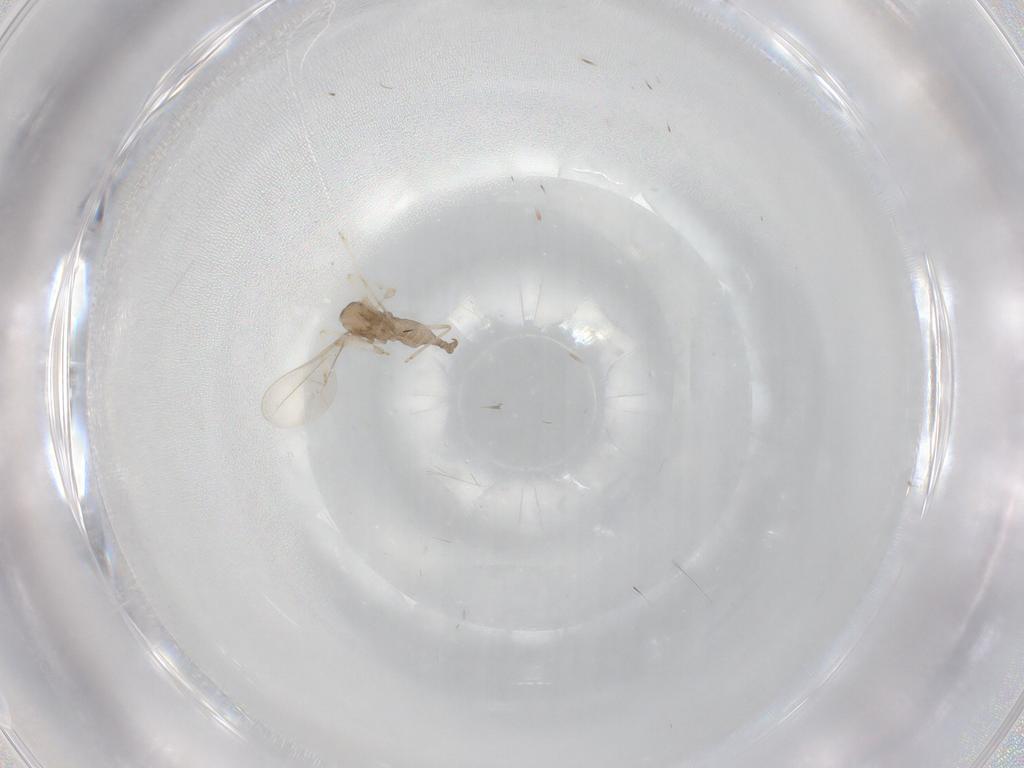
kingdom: Animalia
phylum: Arthropoda
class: Insecta
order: Diptera
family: Cecidomyiidae
